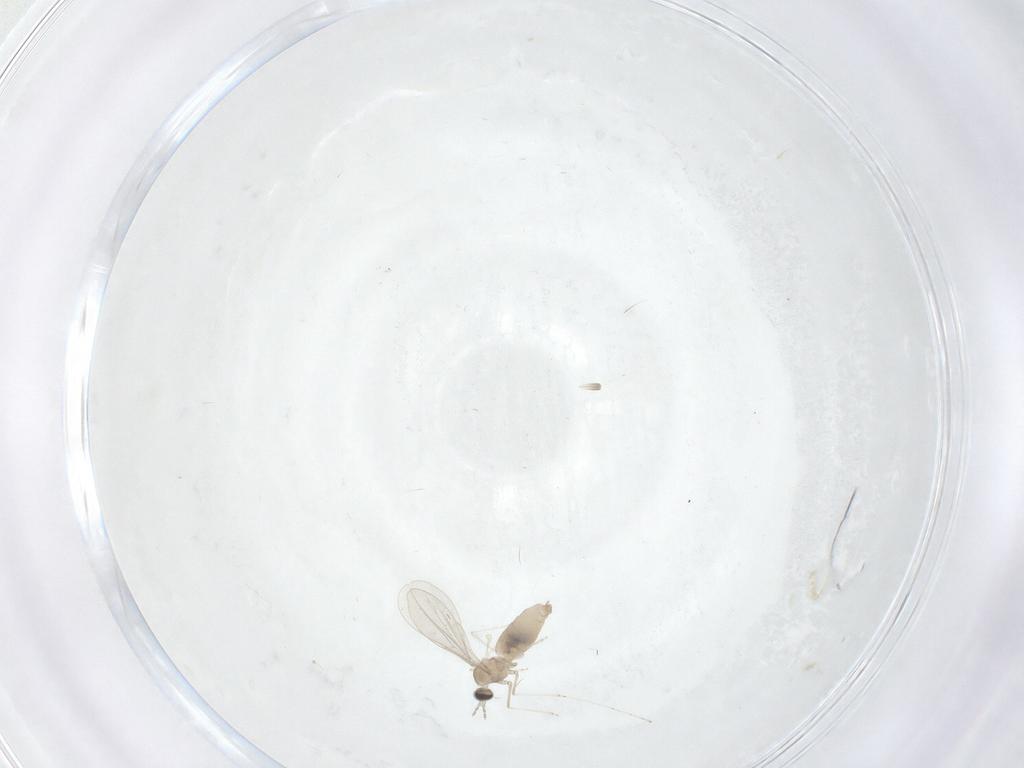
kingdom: Animalia
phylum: Arthropoda
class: Insecta
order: Diptera
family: Cecidomyiidae
